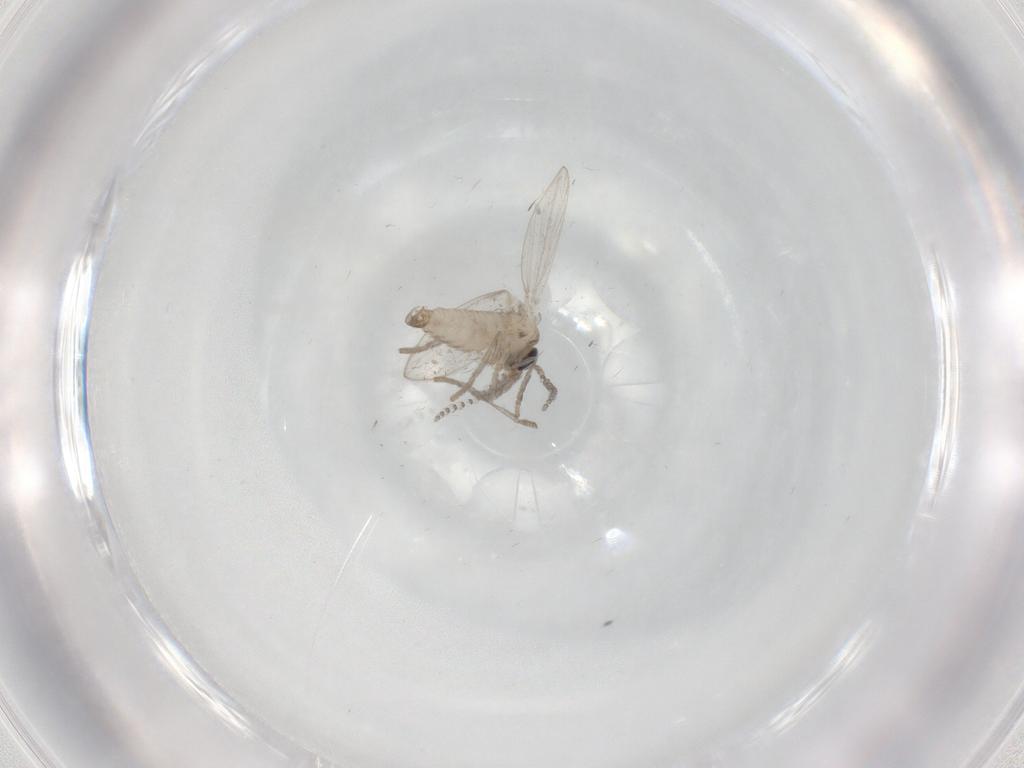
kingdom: Animalia
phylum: Arthropoda
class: Insecta
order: Diptera
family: Psychodidae
